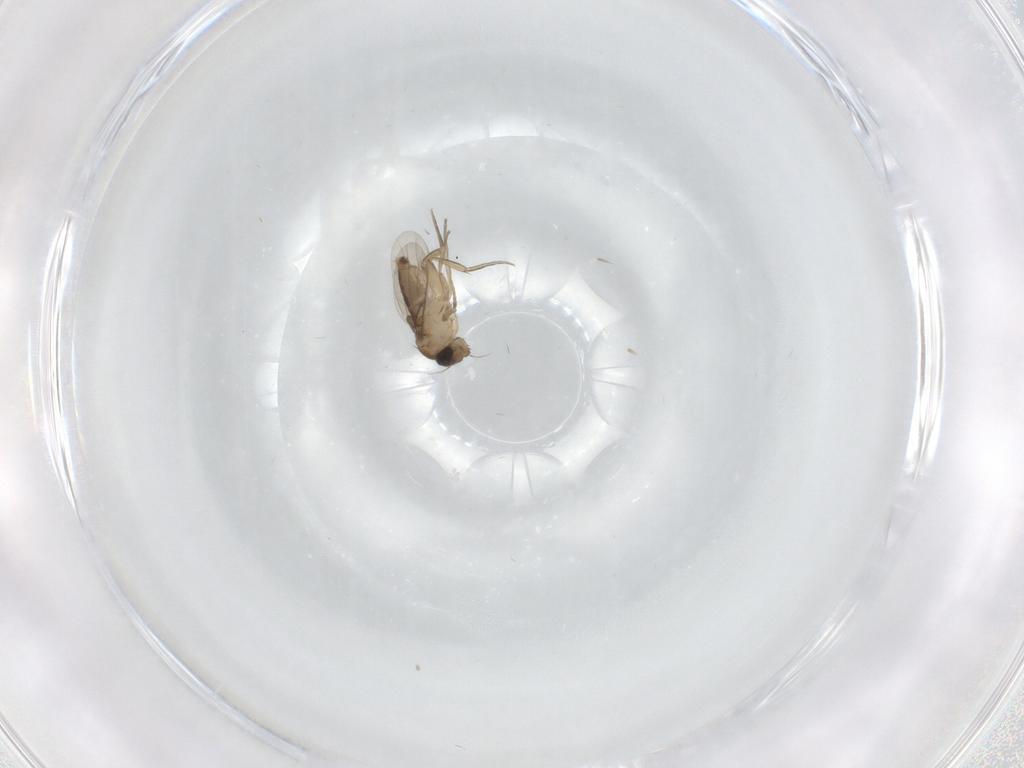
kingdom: Animalia
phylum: Arthropoda
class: Insecta
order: Diptera
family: Phoridae
